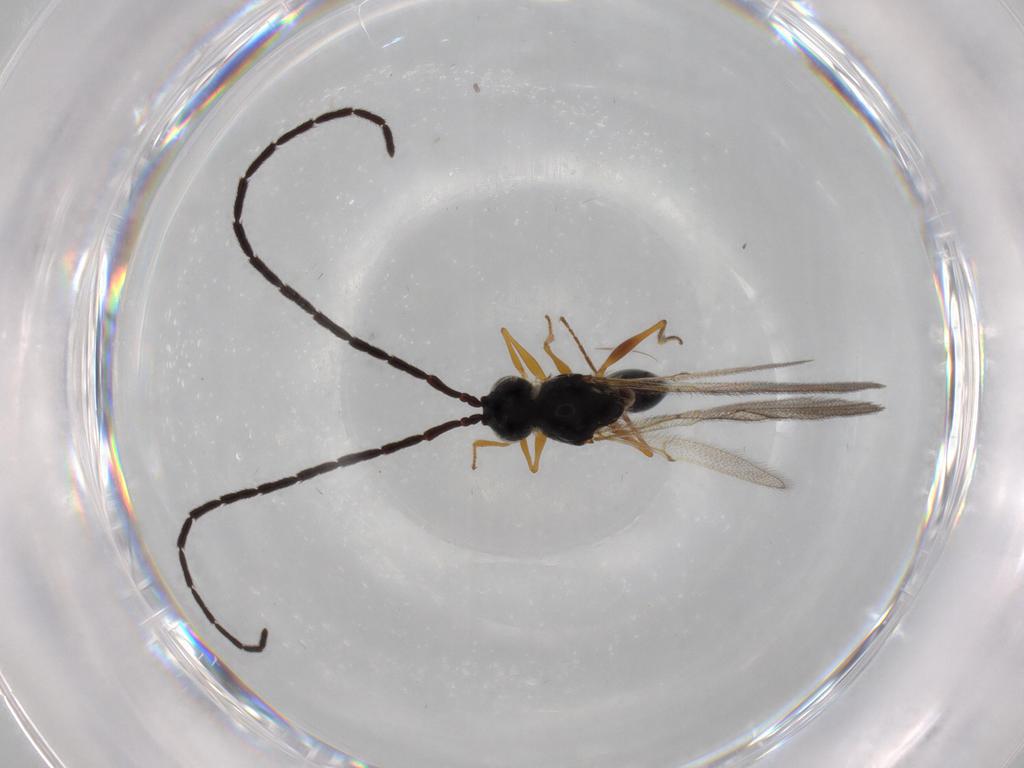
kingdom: Animalia
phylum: Arthropoda
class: Insecta
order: Hymenoptera
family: Figitidae
